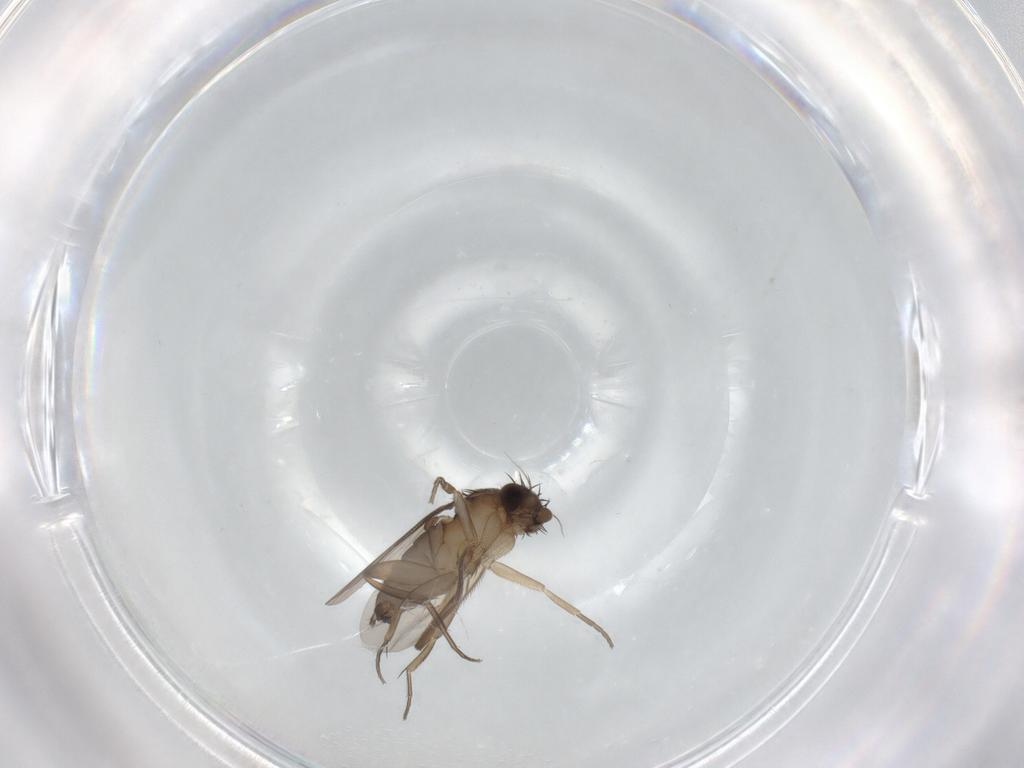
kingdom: Animalia
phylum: Arthropoda
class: Insecta
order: Diptera
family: Phoridae
